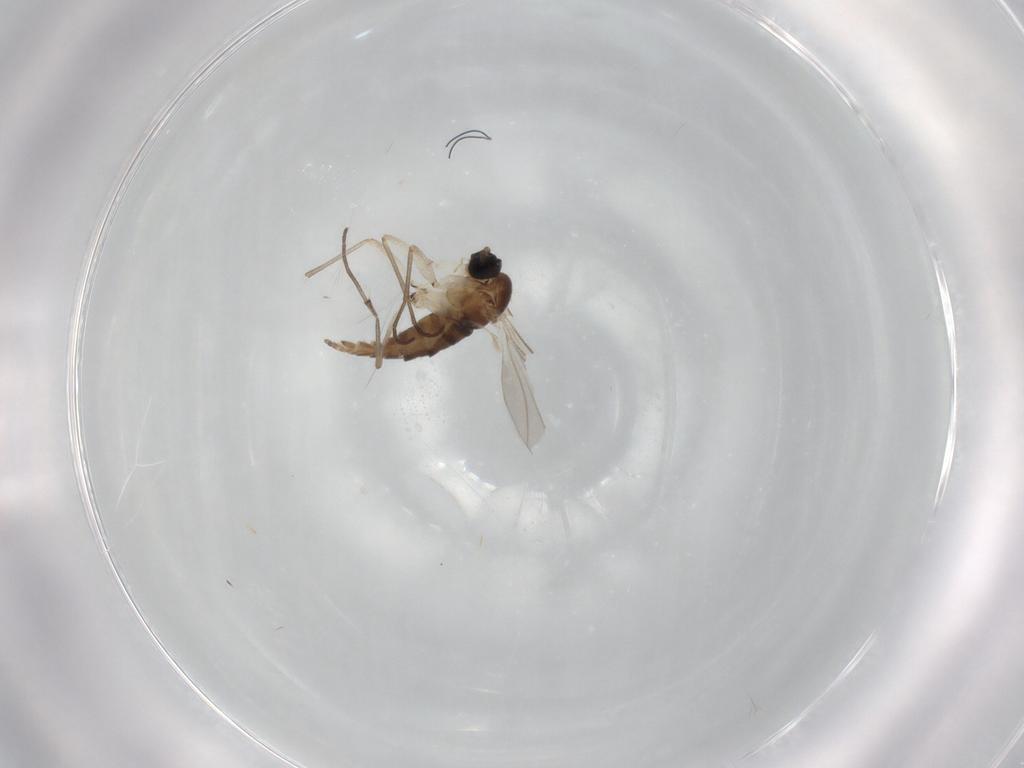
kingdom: Animalia
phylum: Arthropoda
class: Insecta
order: Diptera
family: Sciaridae
